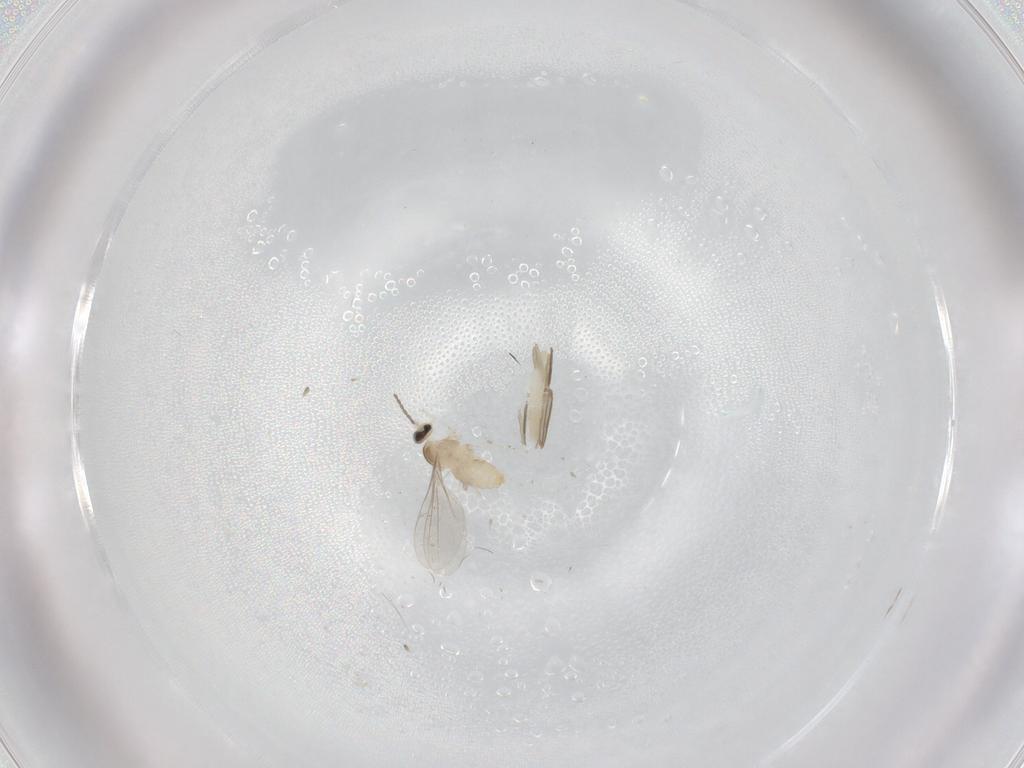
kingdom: Animalia
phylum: Arthropoda
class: Insecta
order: Diptera
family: Cecidomyiidae
